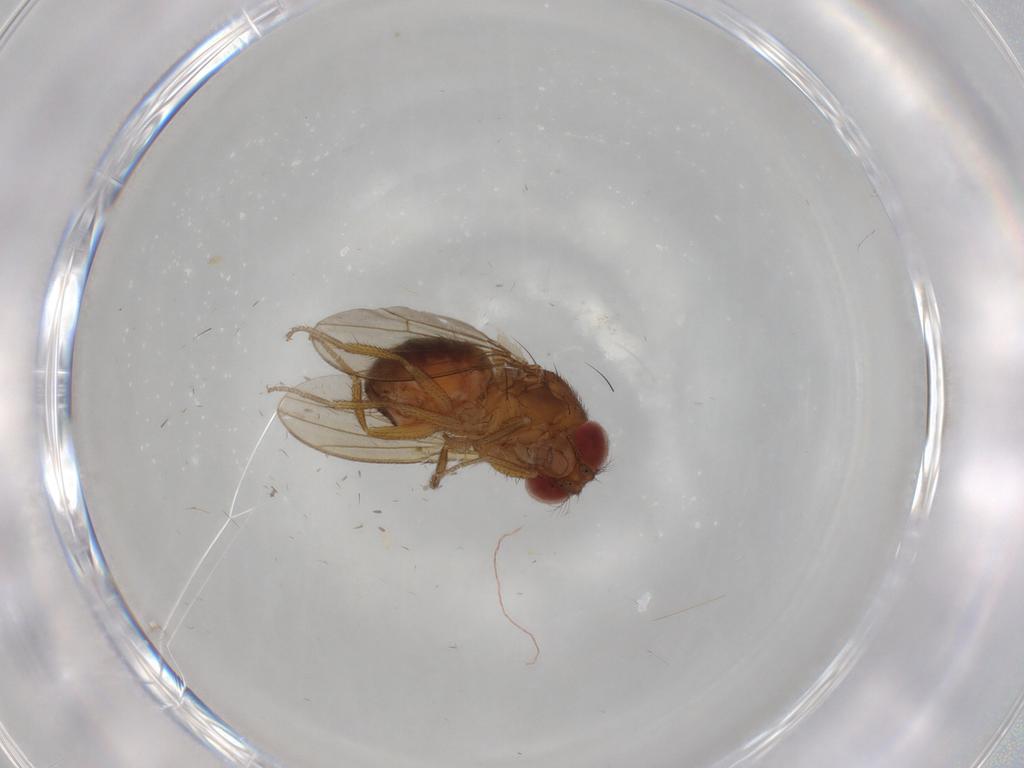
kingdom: Animalia
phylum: Arthropoda
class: Insecta
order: Diptera
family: Drosophilidae
